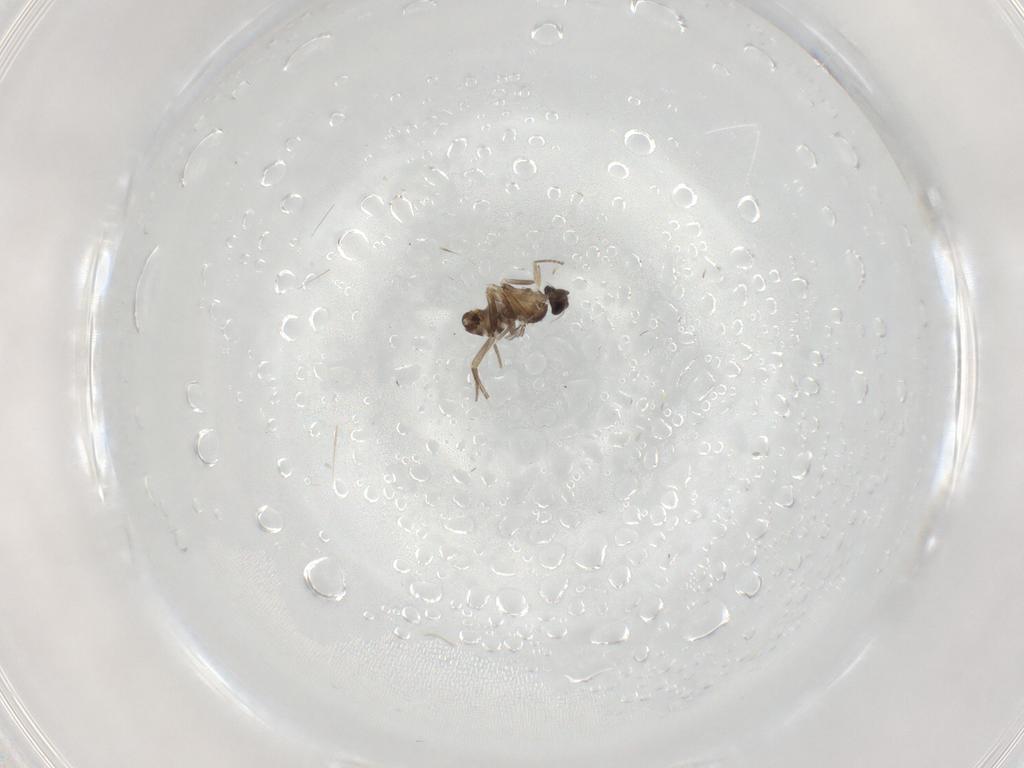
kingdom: Animalia
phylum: Arthropoda
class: Insecta
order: Diptera
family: Cecidomyiidae
